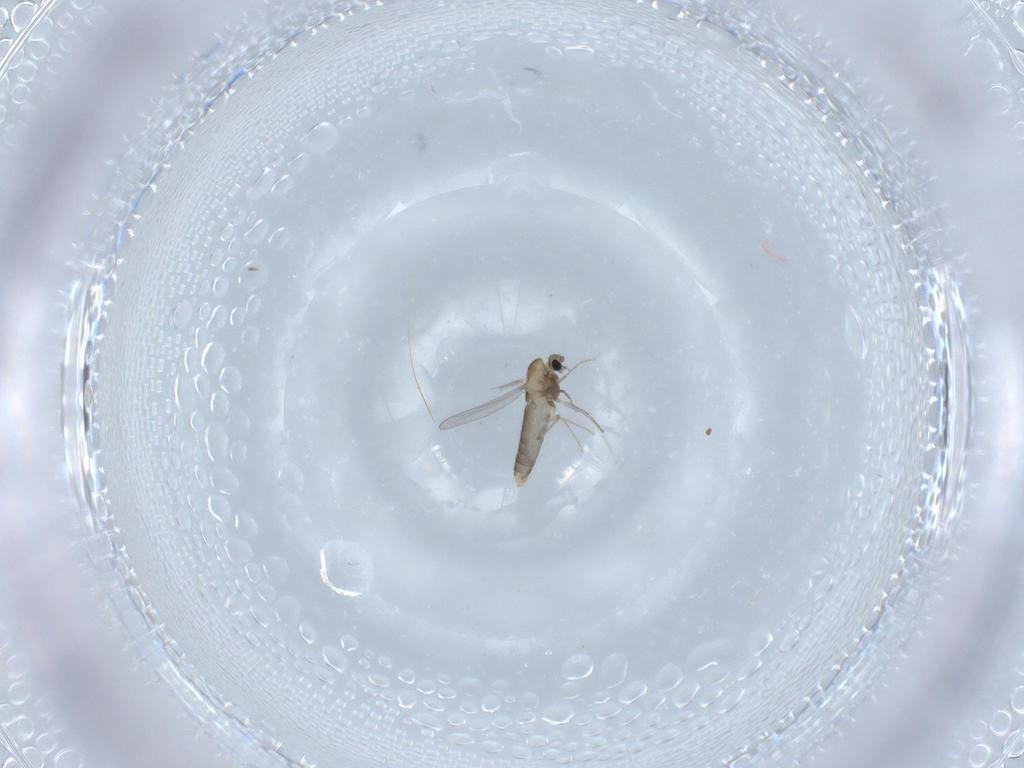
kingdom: Animalia
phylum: Arthropoda
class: Insecta
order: Diptera
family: Chironomidae
